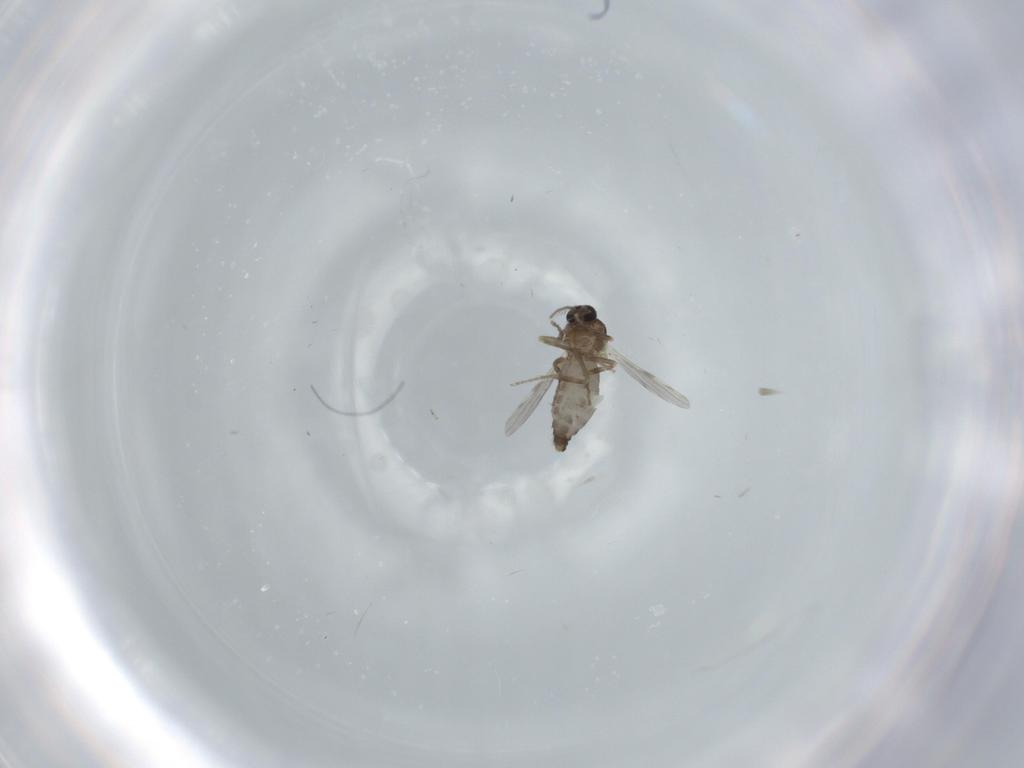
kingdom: Animalia
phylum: Arthropoda
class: Insecta
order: Diptera
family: Ceratopogonidae
